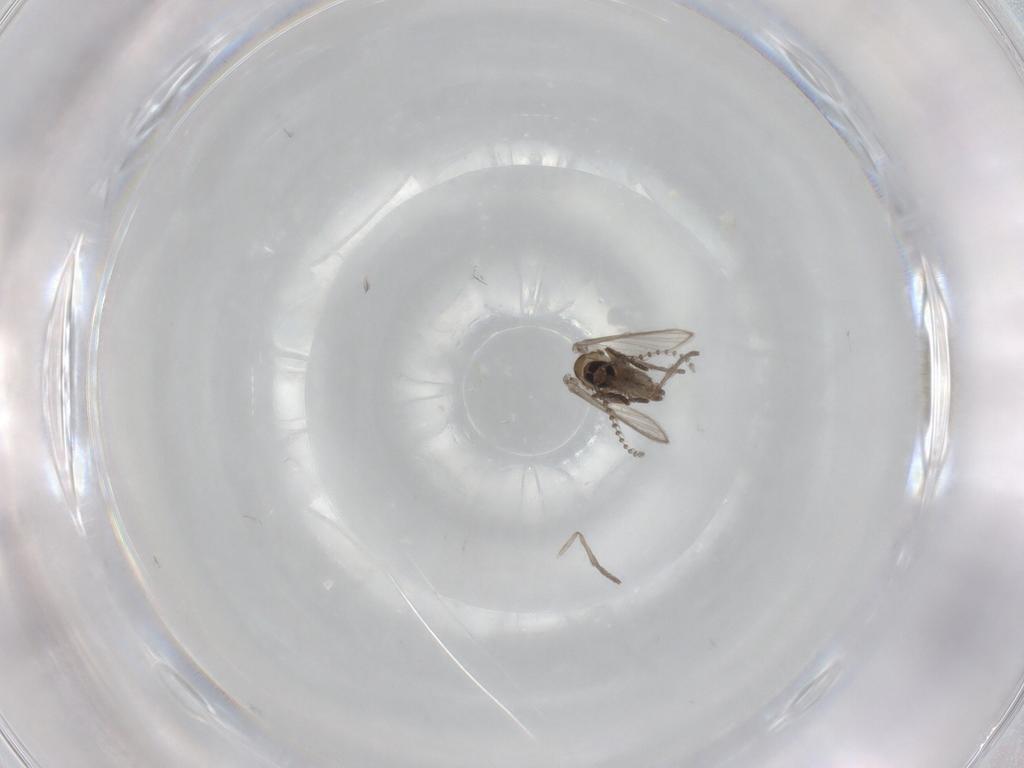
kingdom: Animalia
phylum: Arthropoda
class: Insecta
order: Diptera
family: Psychodidae
